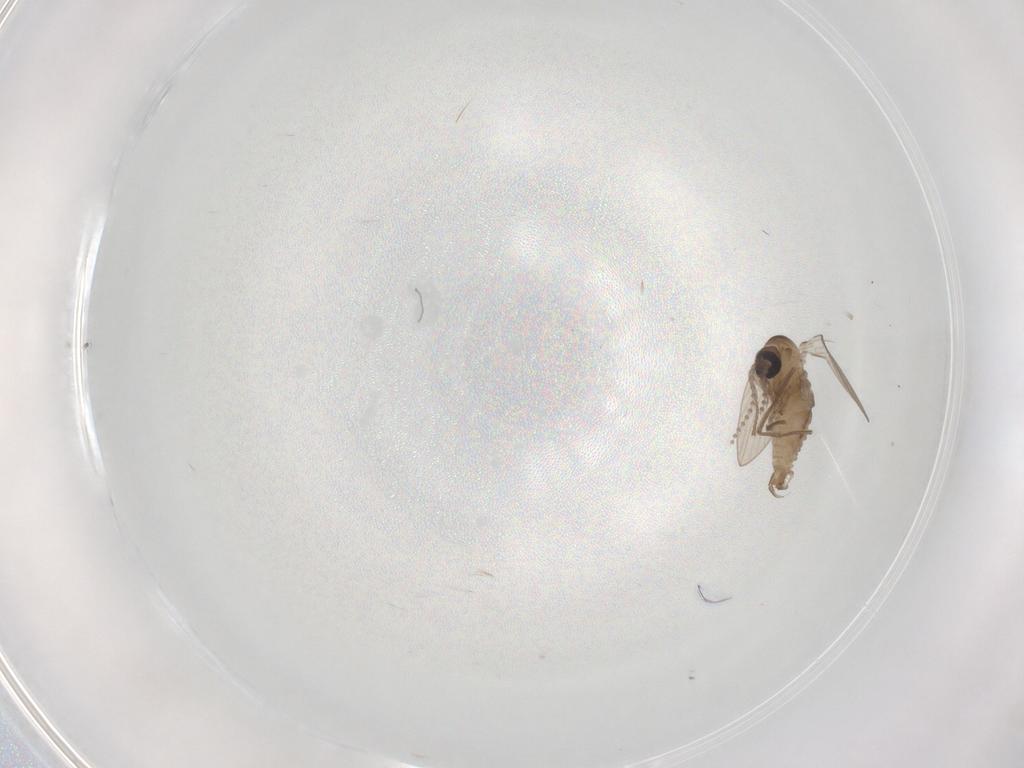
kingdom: Animalia
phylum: Arthropoda
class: Insecta
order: Diptera
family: Psychodidae
